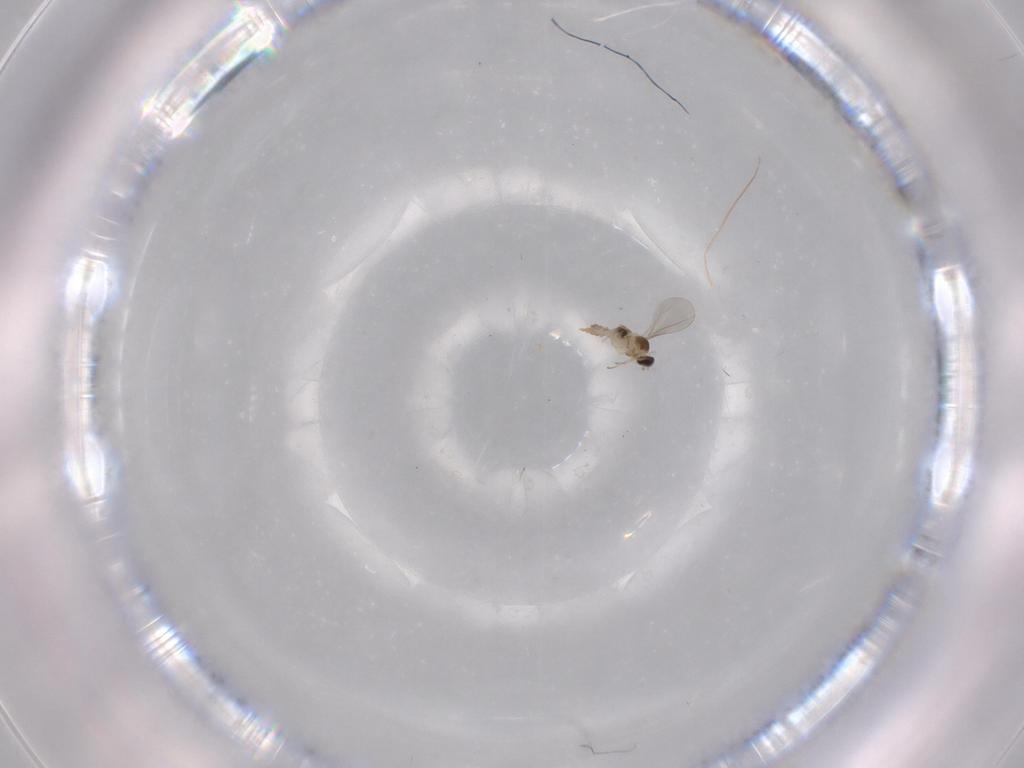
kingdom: Animalia
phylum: Arthropoda
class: Insecta
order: Diptera
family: Cecidomyiidae
